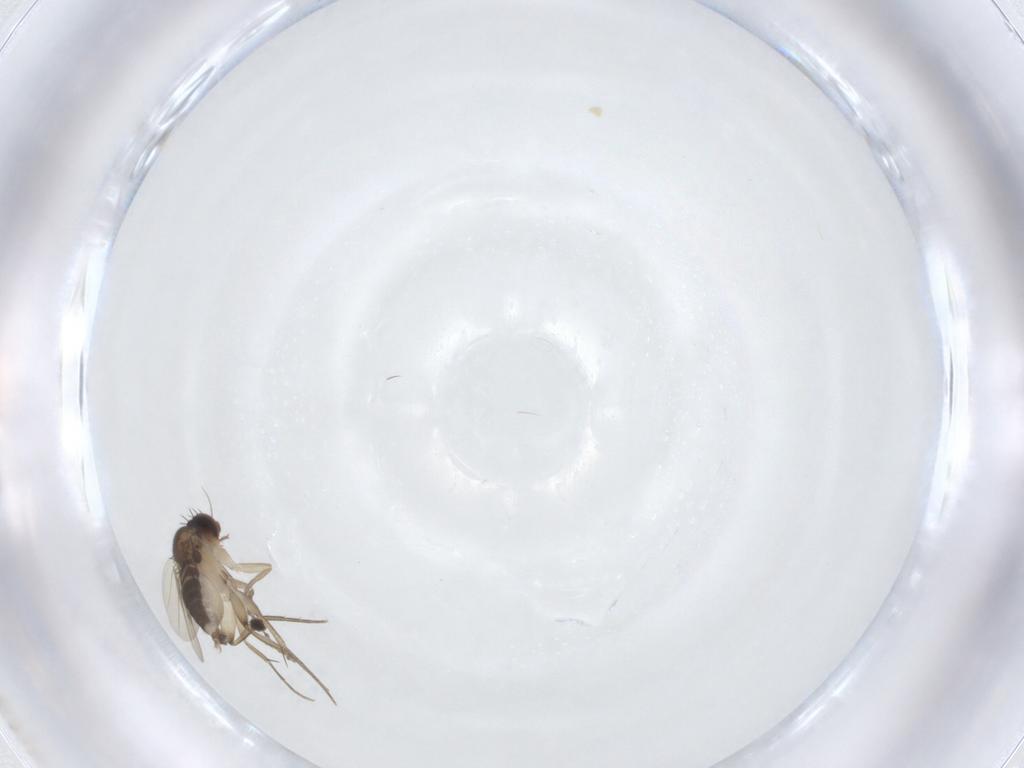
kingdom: Animalia
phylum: Arthropoda
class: Insecta
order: Diptera
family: Phoridae
